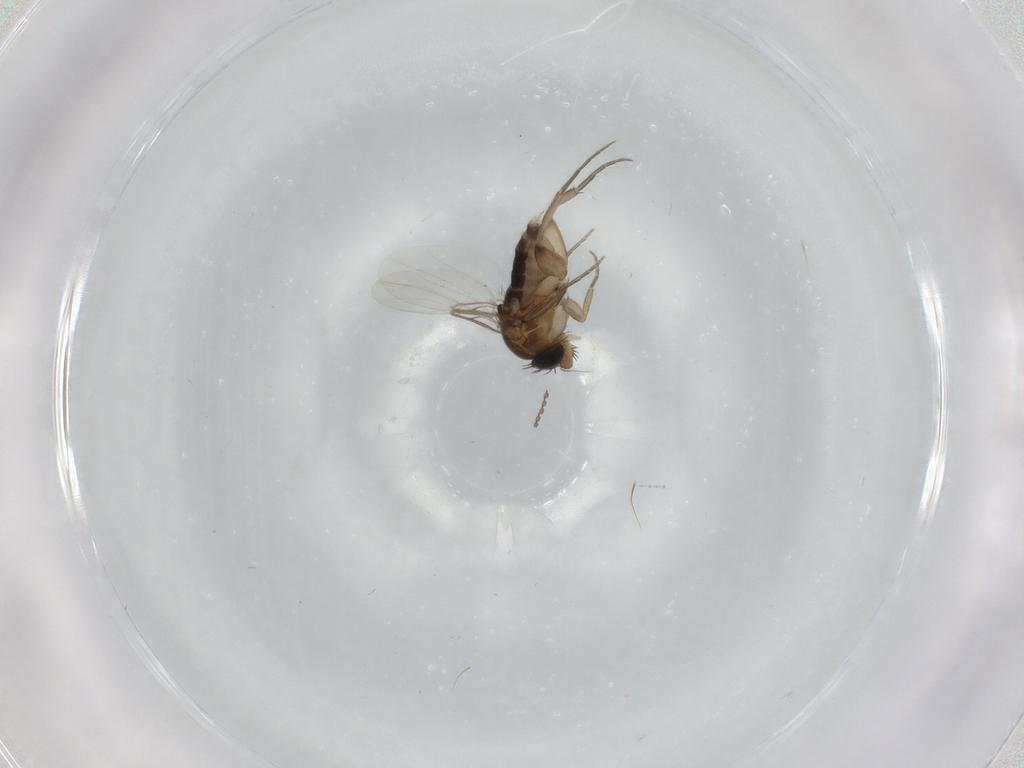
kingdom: Animalia
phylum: Arthropoda
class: Insecta
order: Diptera
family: Phoridae
